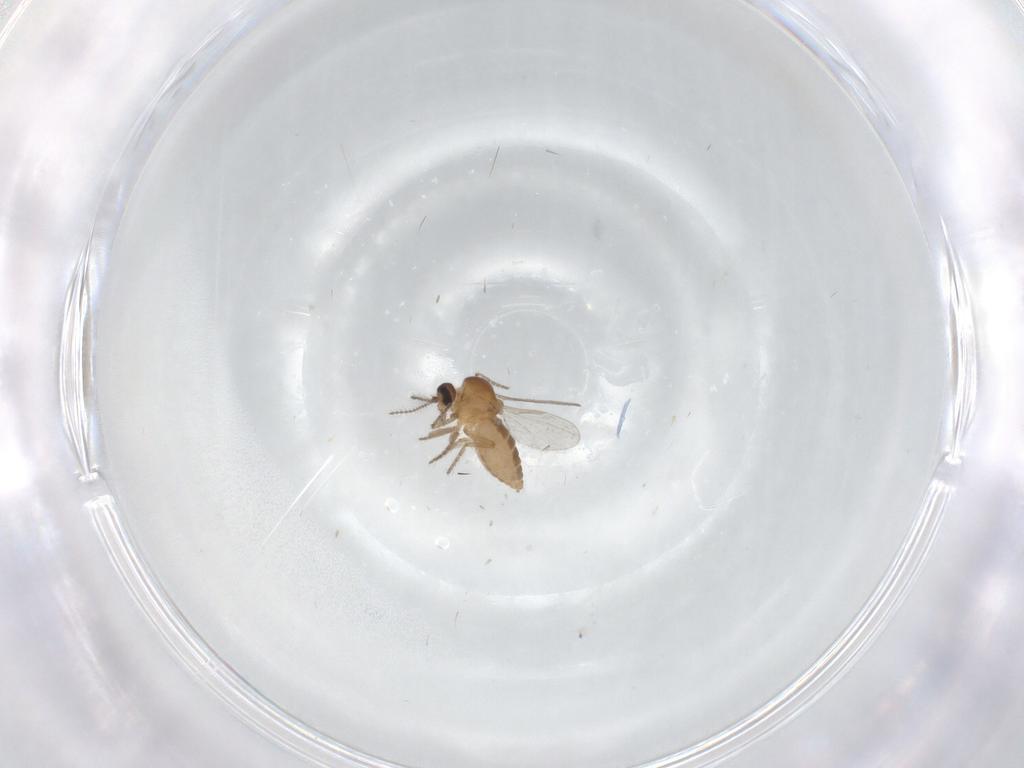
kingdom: Animalia
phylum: Arthropoda
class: Insecta
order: Diptera
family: Ceratopogonidae
